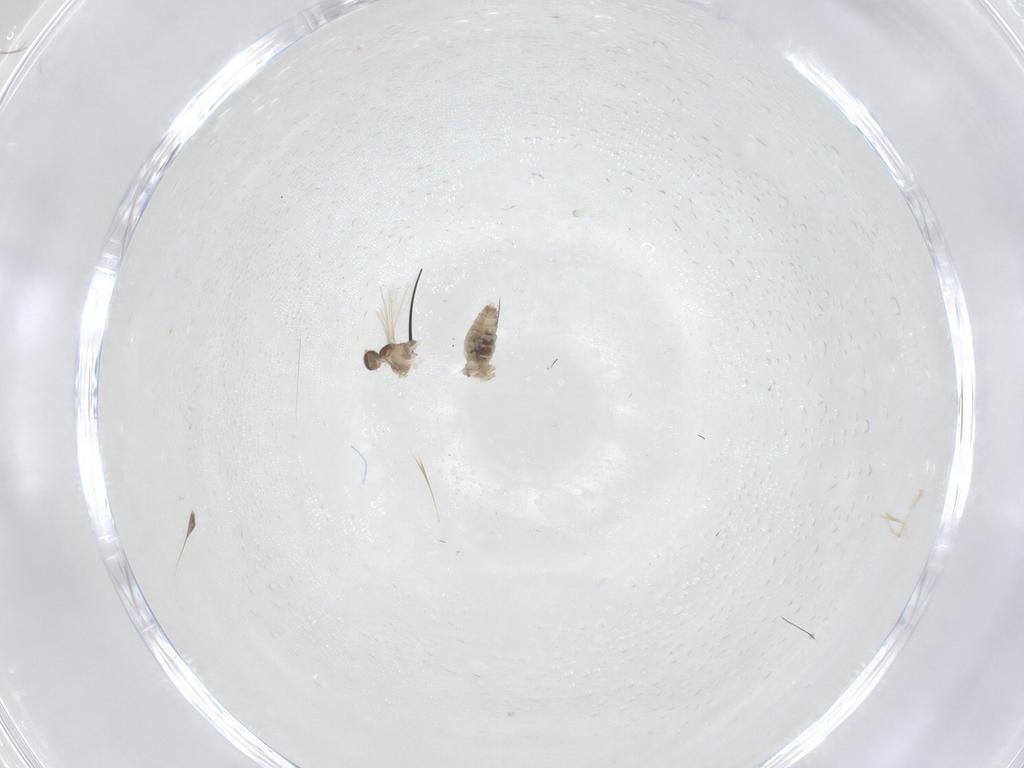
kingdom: Animalia
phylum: Arthropoda
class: Insecta
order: Diptera
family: Cecidomyiidae
